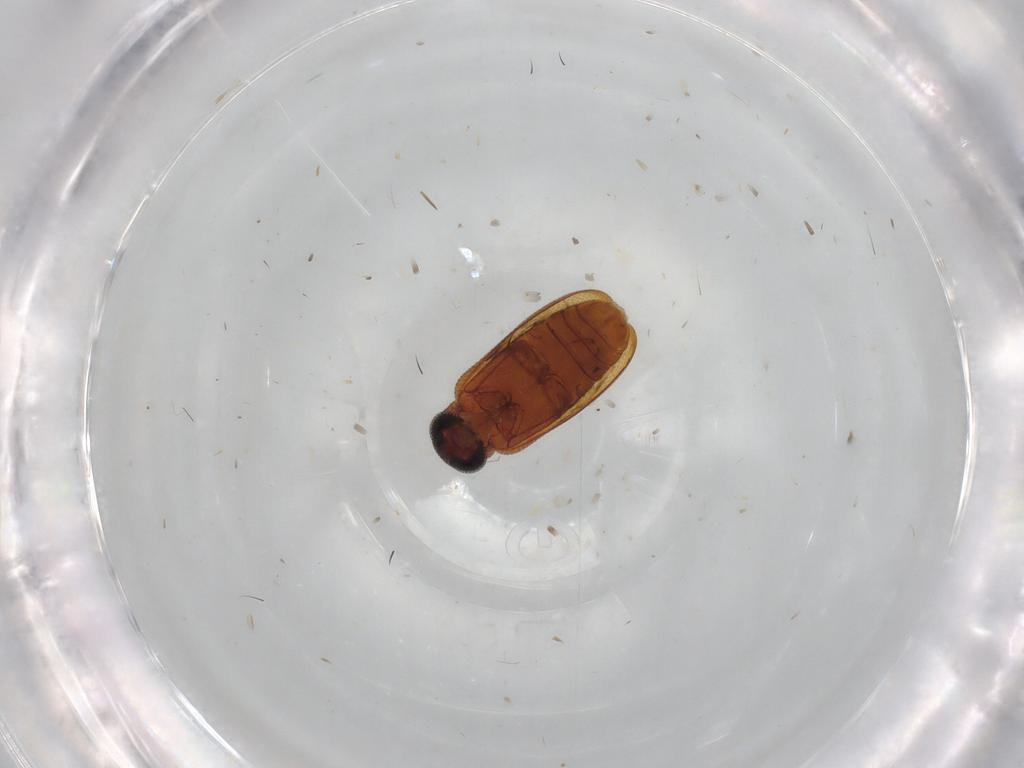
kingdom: Animalia
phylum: Arthropoda
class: Insecta
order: Coleoptera
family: Aderidae
